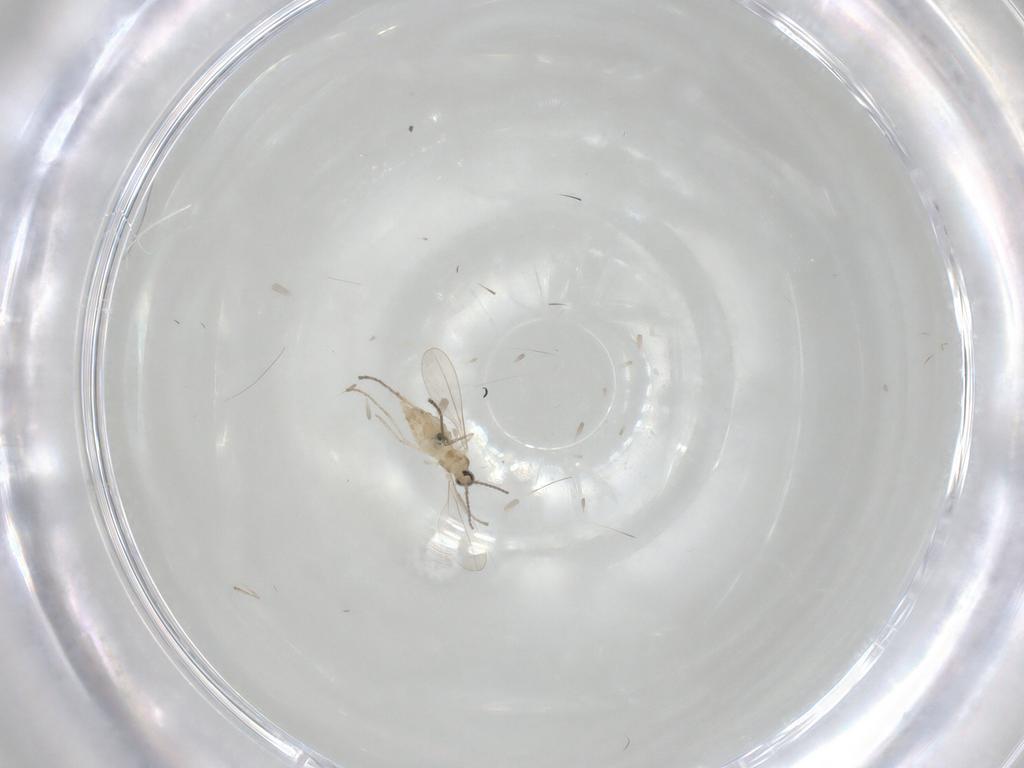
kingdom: Animalia
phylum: Arthropoda
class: Insecta
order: Diptera
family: Cecidomyiidae
